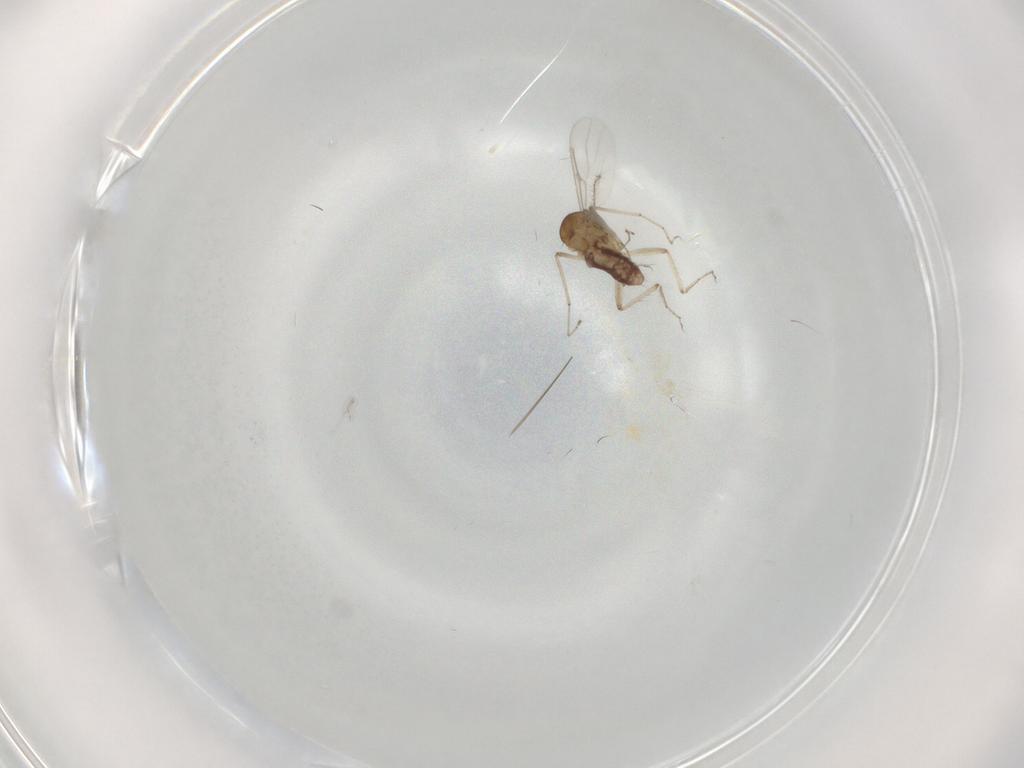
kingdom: Animalia
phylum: Arthropoda
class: Insecta
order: Diptera
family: Ceratopogonidae
